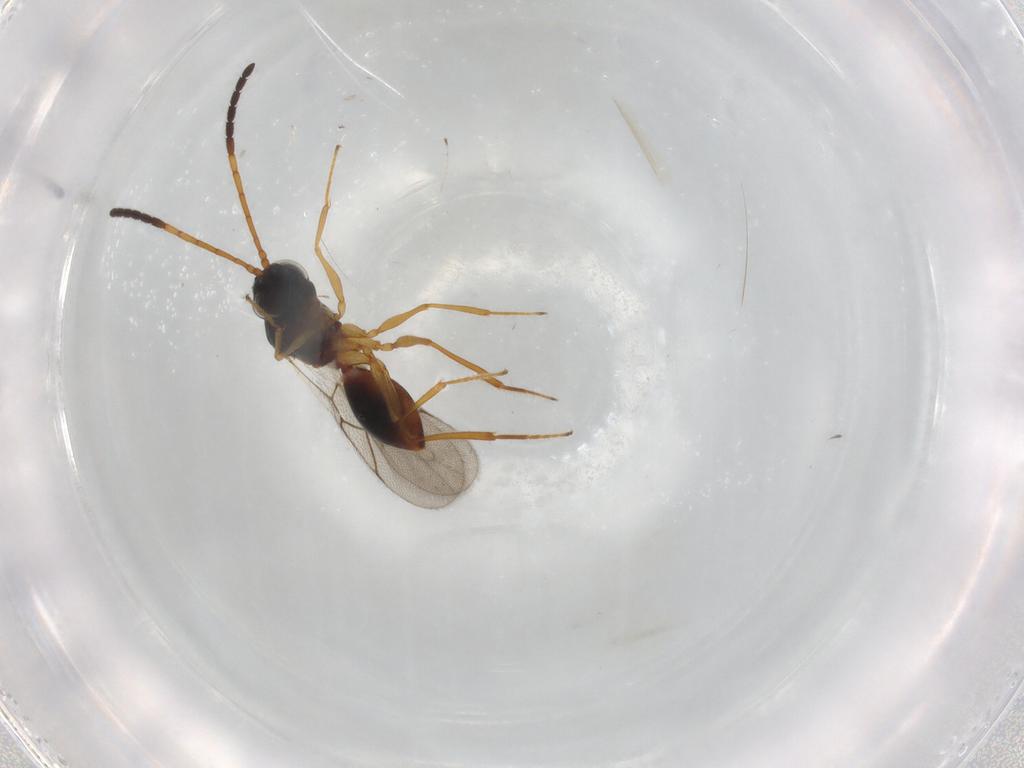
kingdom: Animalia
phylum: Arthropoda
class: Insecta
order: Hymenoptera
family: Figitidae
